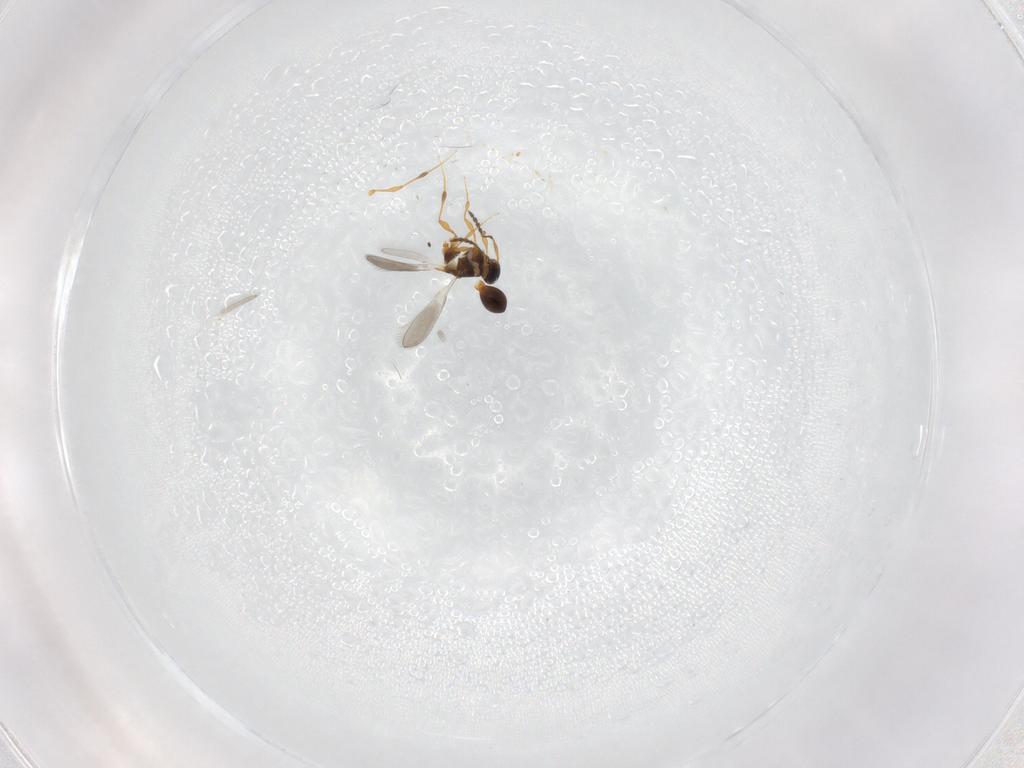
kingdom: Animalia
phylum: Arthropoda
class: Insecta
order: Hymenoptera
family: Platygastridae
